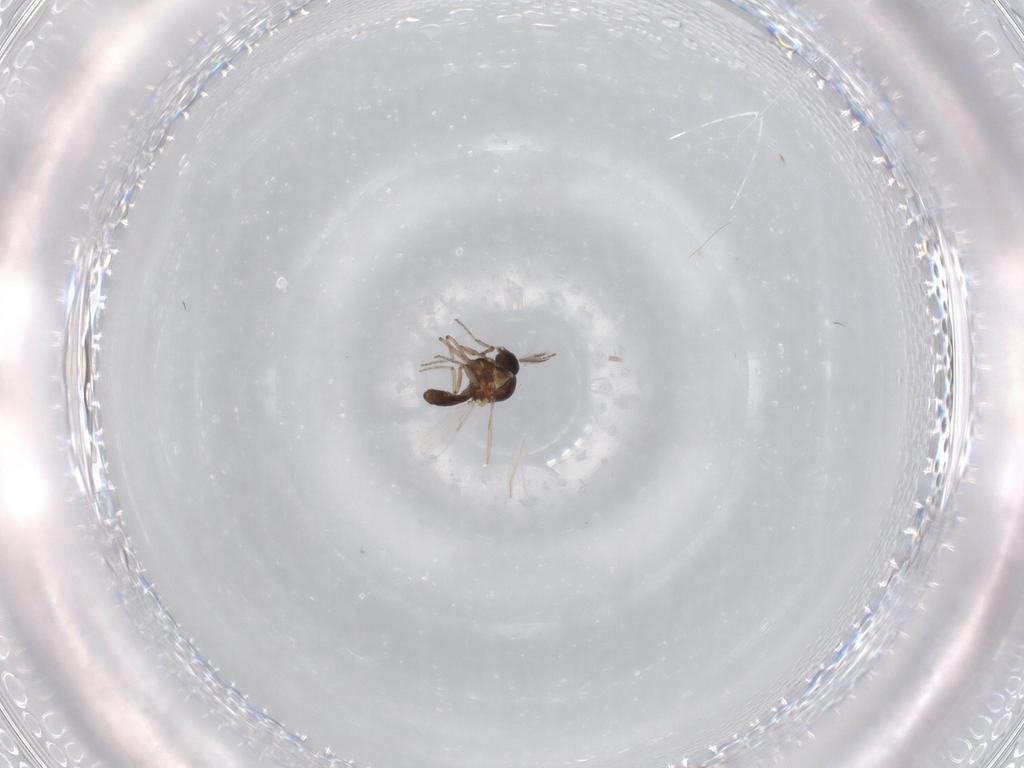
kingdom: Animalia
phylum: Arthropoda
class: Insecta
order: Diptera
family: Ceratopogonidae
